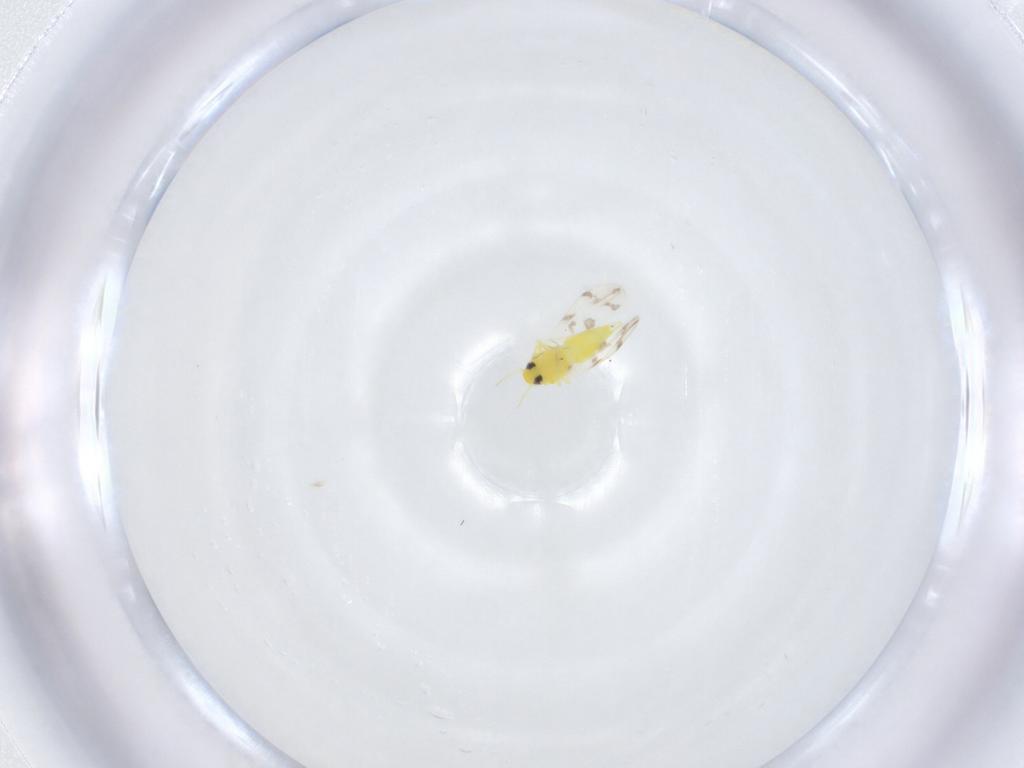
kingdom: Animalia
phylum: Arthropoda
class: Insecta
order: Hemiptera
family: Aleyrodidae
